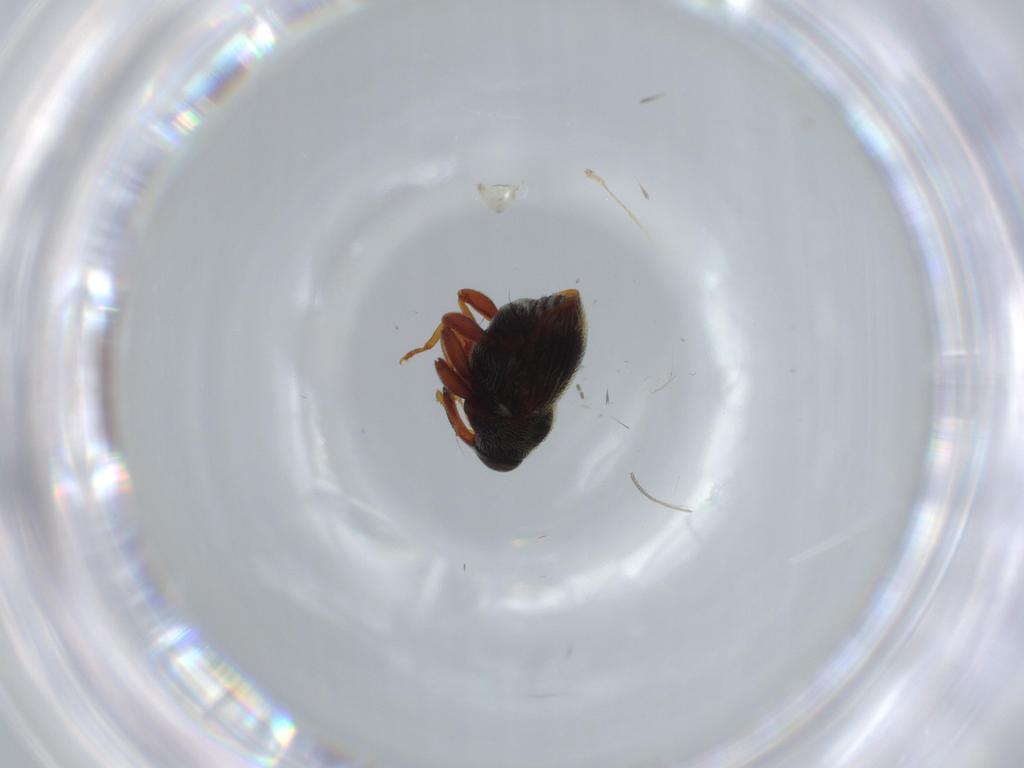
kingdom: Animalia
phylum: Arthropoda
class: Insecta
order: Coleoptera
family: Curculionidae
